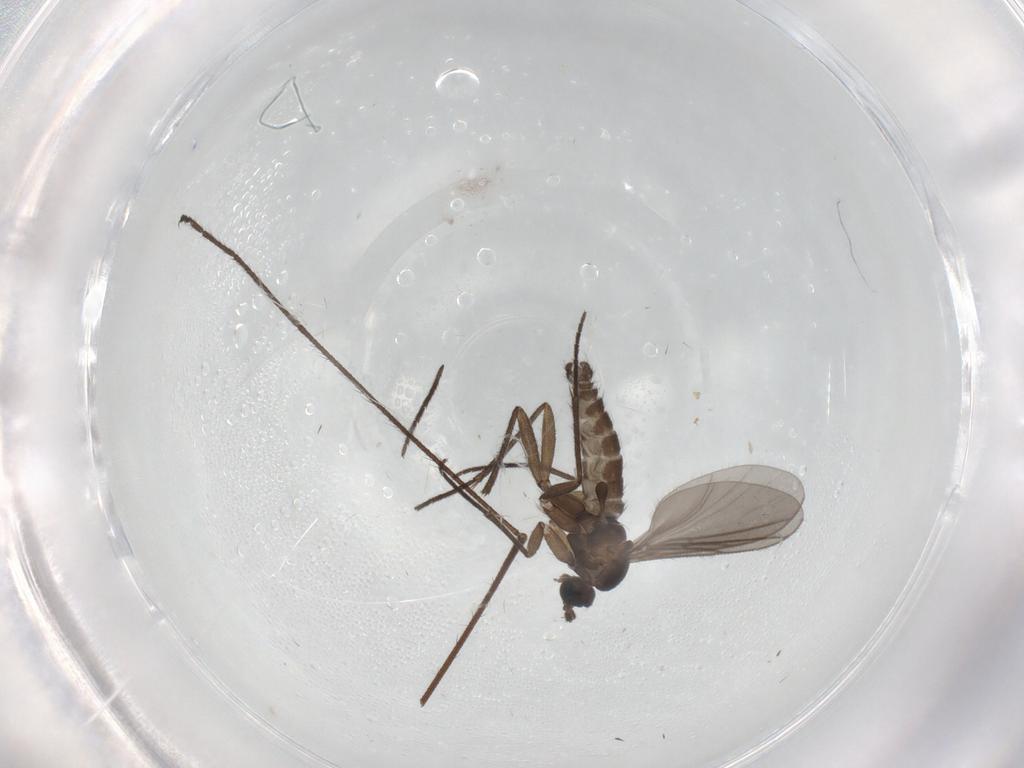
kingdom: Animalia
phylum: Arthropoda
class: Insecta
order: Diptera
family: Sciaridae
